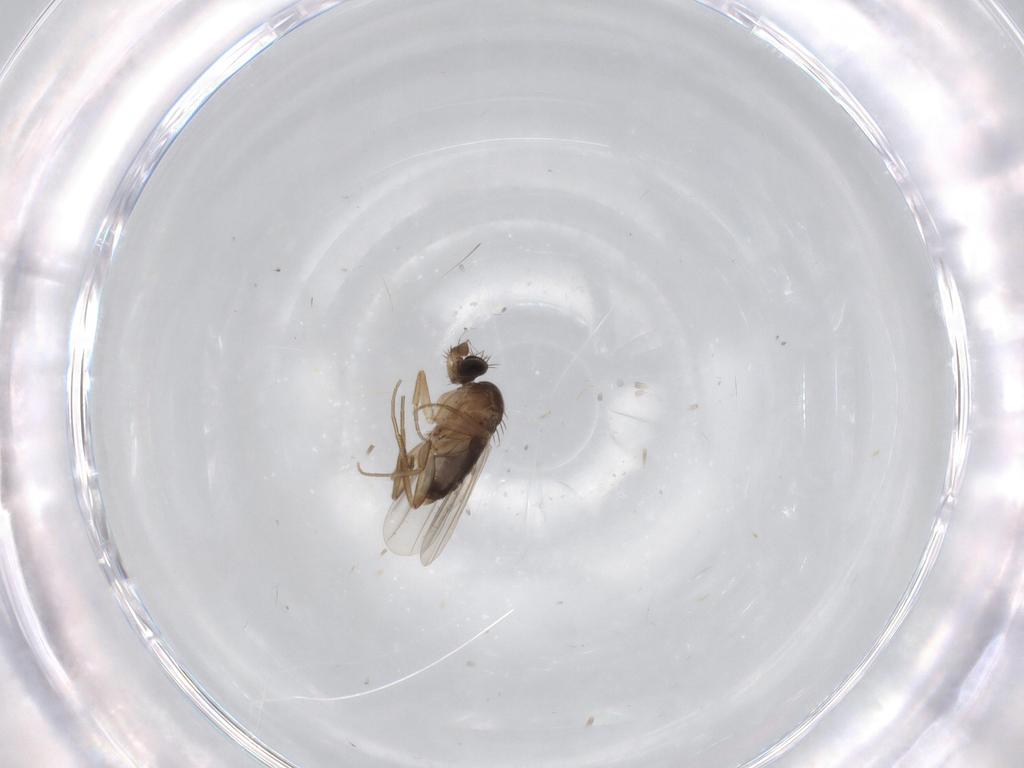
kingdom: Animalia
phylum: Arthropoda
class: Insecta
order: Diptera
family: Phoridae
